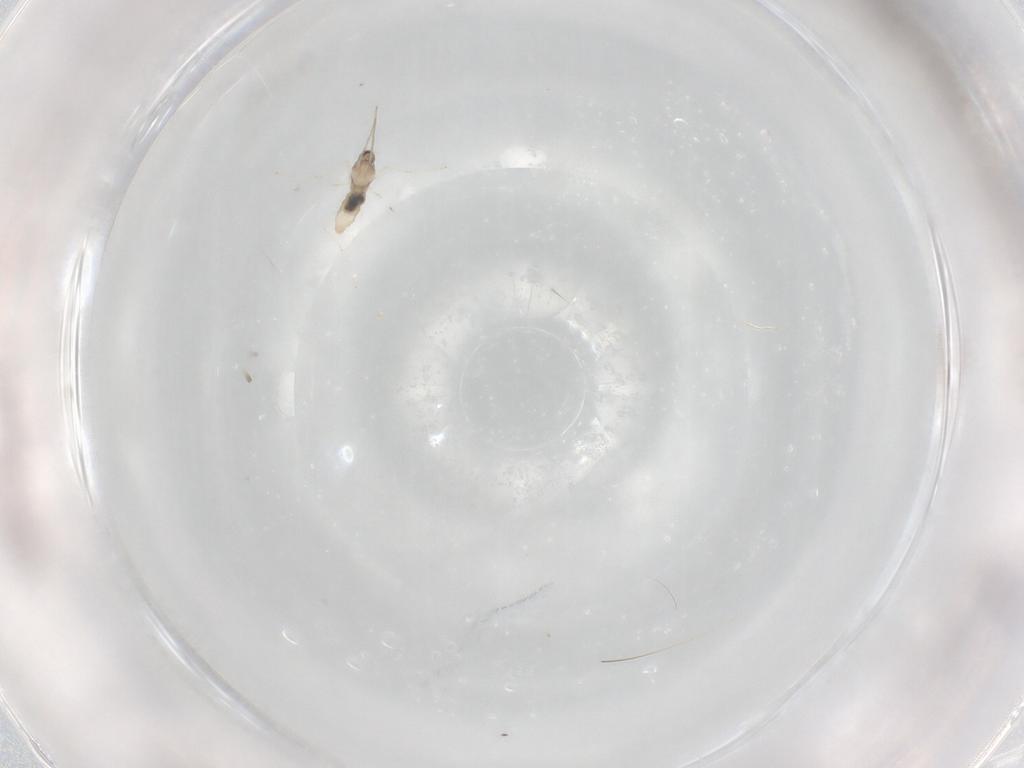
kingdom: Animalia
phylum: Arthropoda
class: Insecta
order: Diptera
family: Cecidomyiidae
